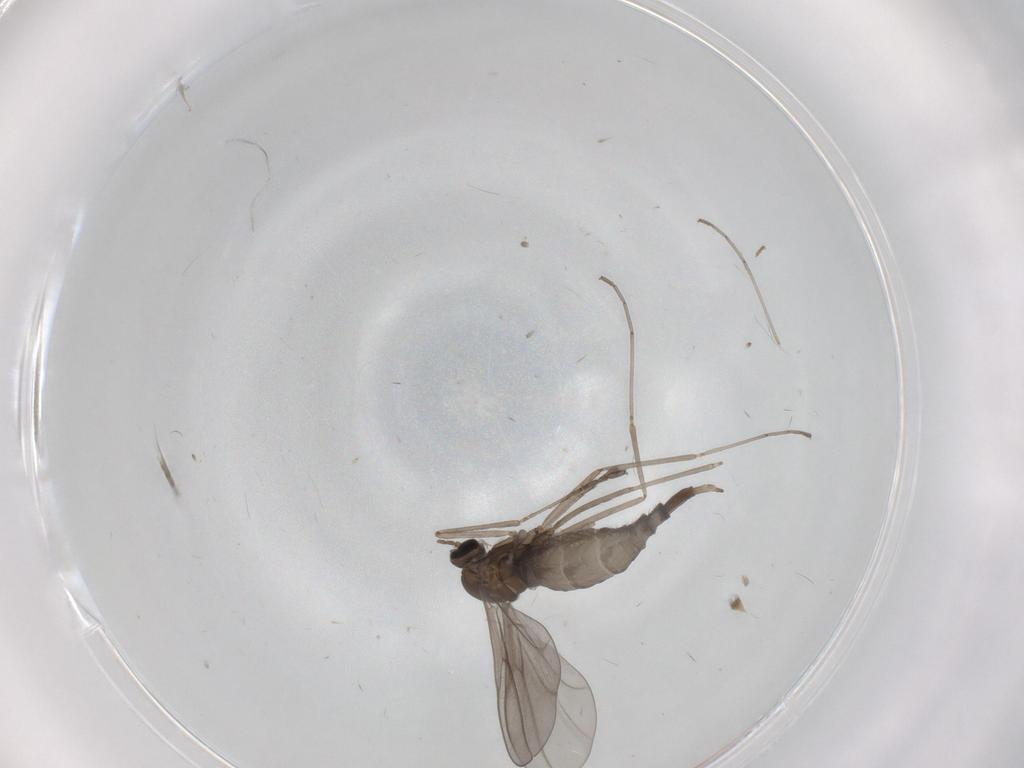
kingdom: Animalia
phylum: Arthropoda
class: Insecta
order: Diptera
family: Cecidomyiidae
